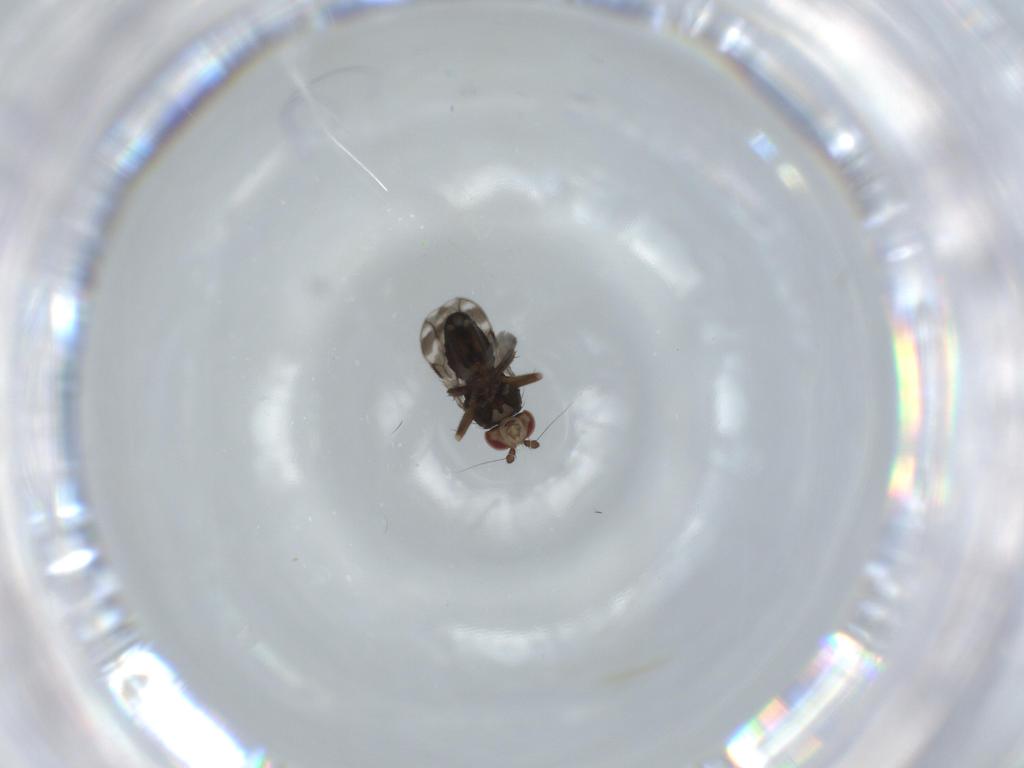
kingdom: Animalia
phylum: Arthropoda
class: Insecta
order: Diptera
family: Sphaeroceridae
